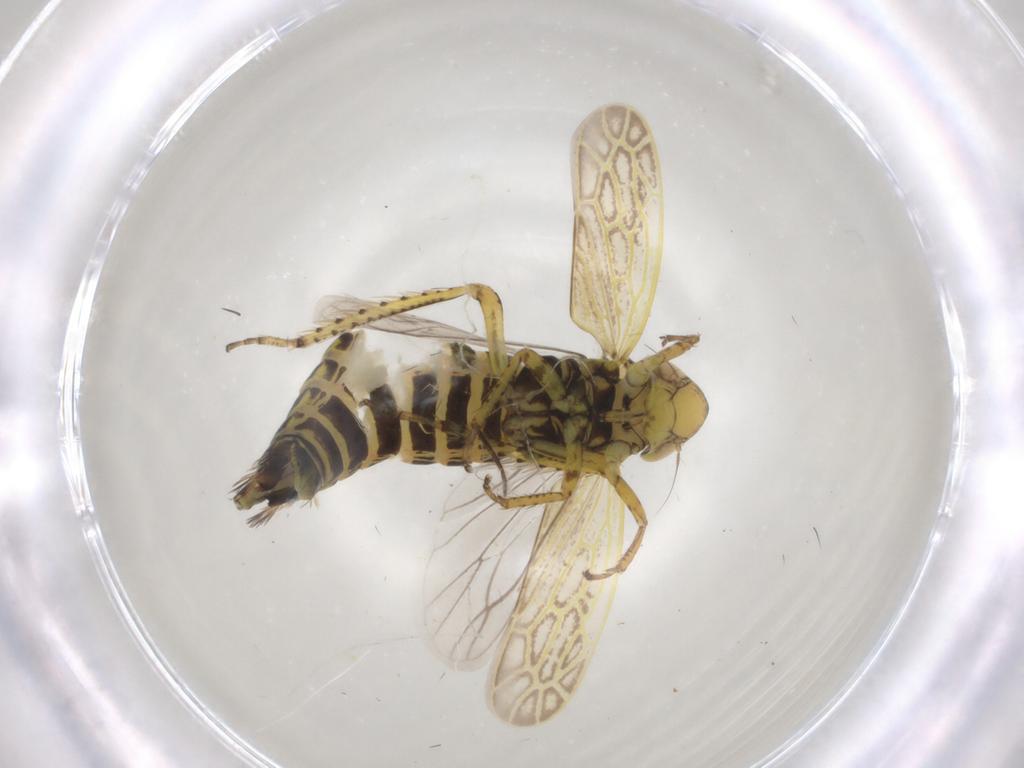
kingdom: Animalia
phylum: Arthropoda
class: Insecta
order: Hemiptera
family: Cicadellidae
